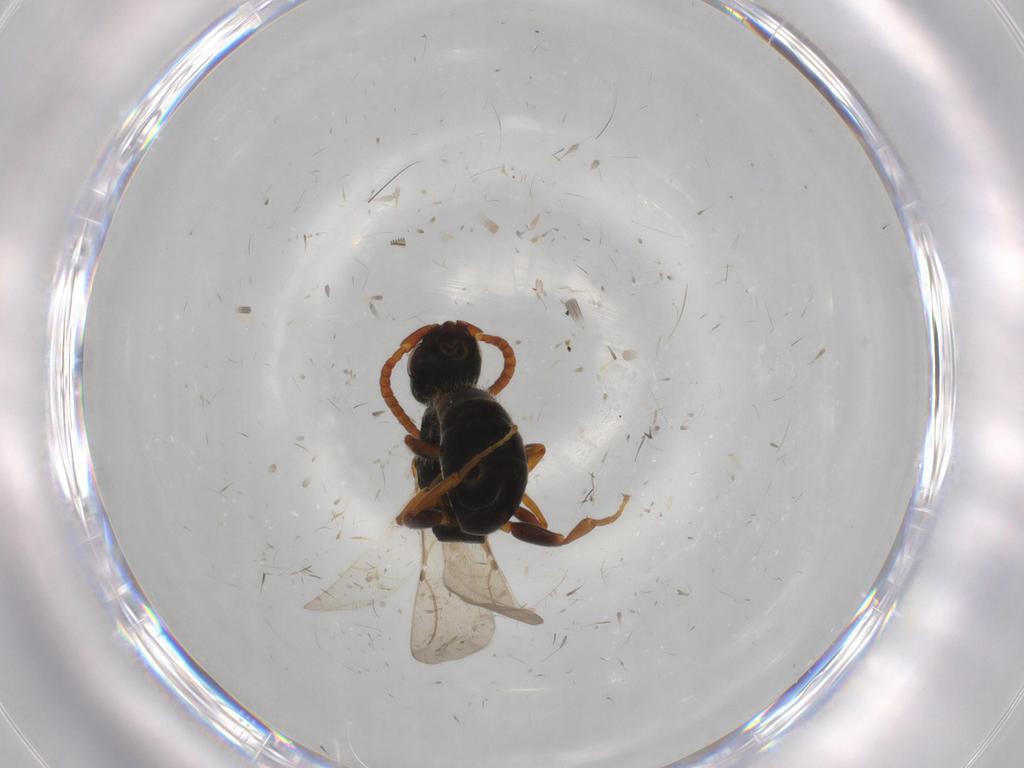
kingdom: Animalia
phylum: Arthropoda
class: Insecta
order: Hymenoptera
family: Bethylidae
